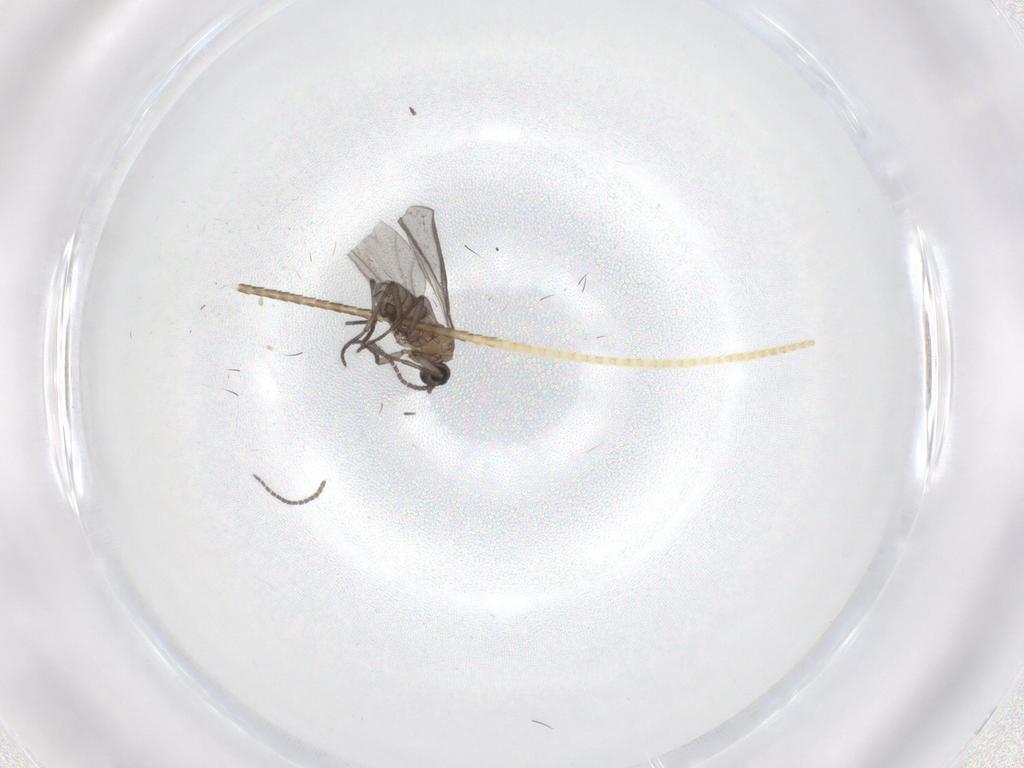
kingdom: Animalia
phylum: Arthropoda
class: Insecta
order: Diptera
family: Sciaridae
